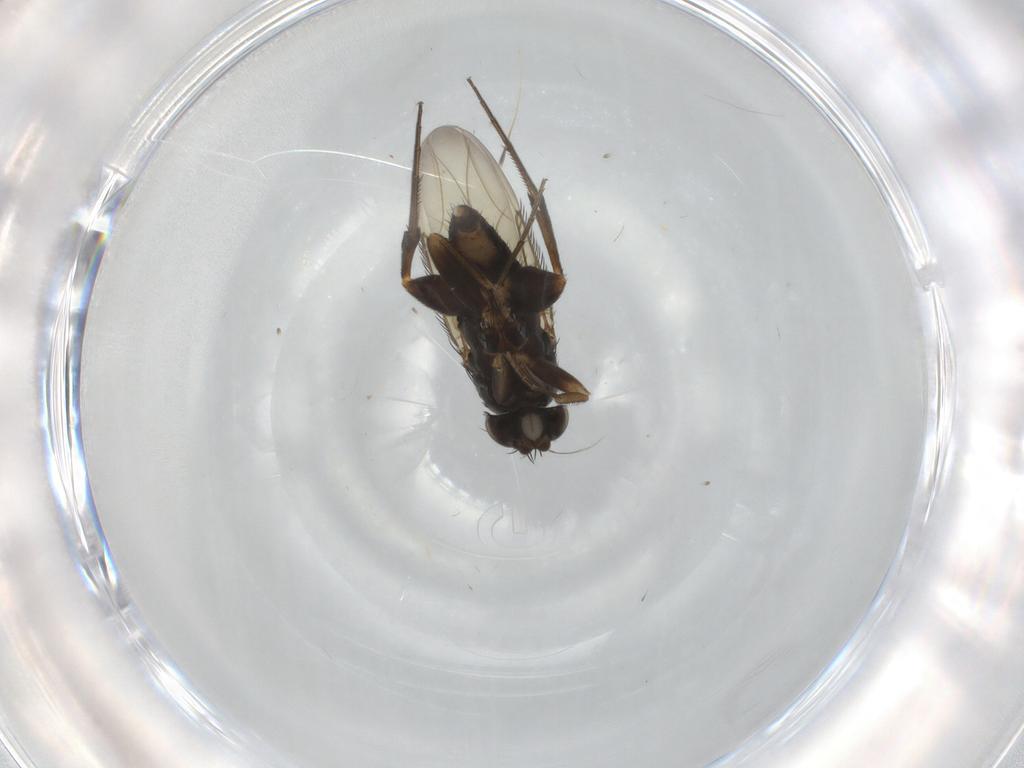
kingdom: Animalia
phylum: Arthropoda
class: Insecta
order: Diptera
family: Phoridae
